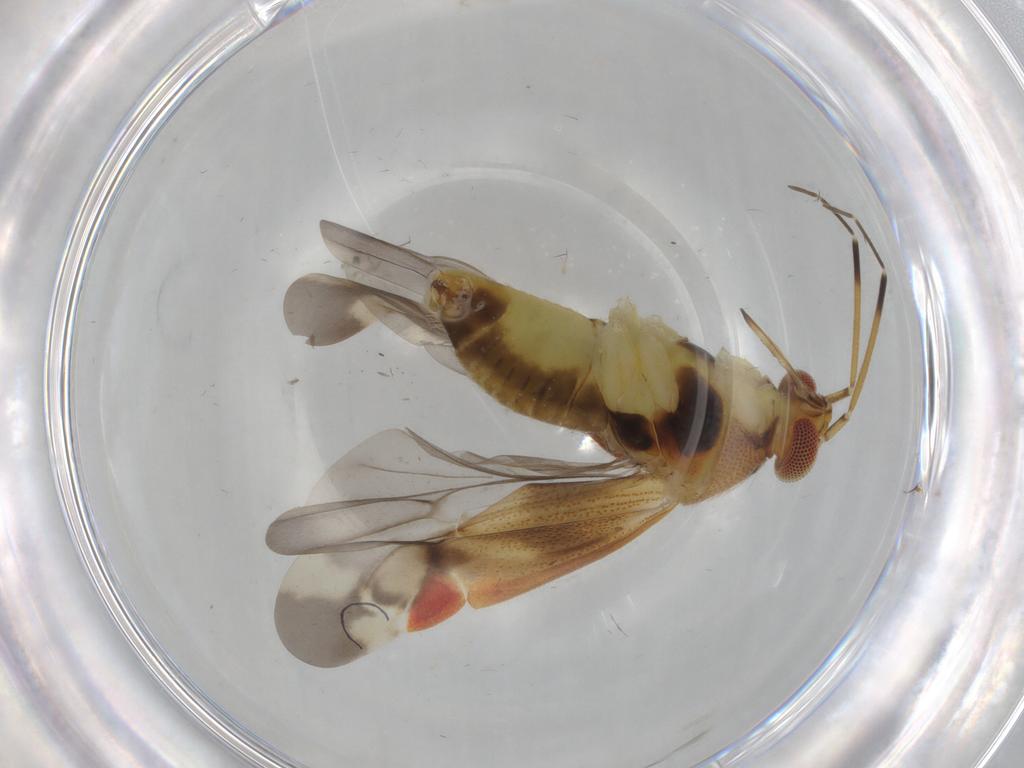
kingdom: Animalia
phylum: Arthropoda
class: Insecta
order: Hemiptera
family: Miridae
